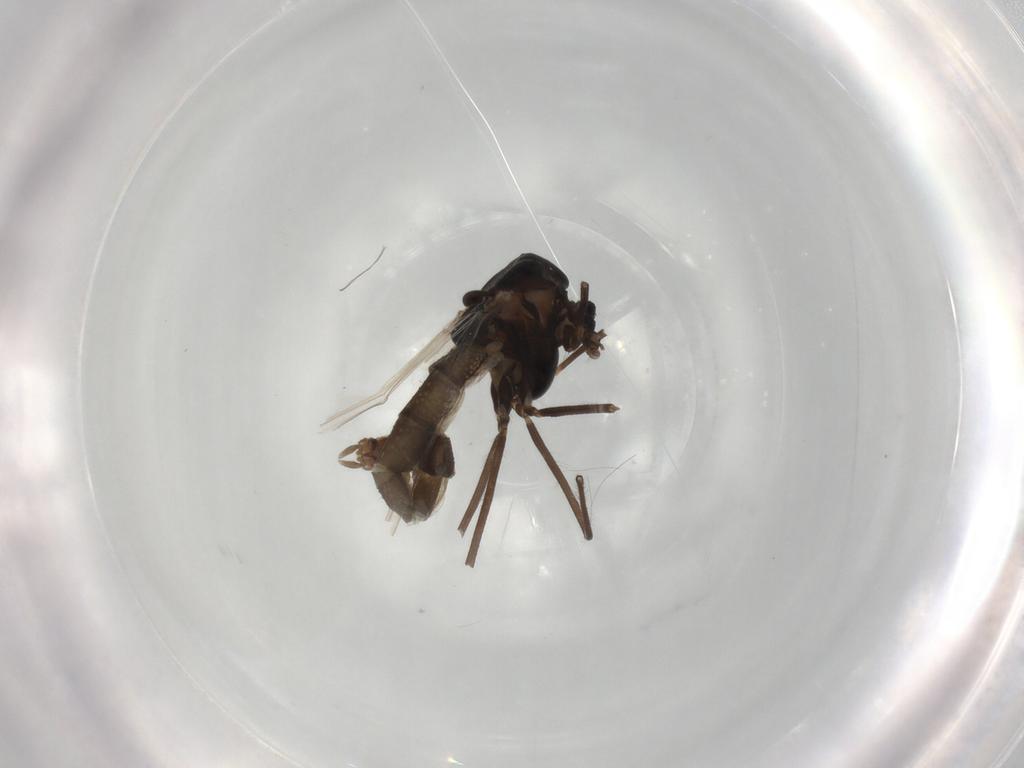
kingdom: Animalia
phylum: Arthropoda
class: Insecta
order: Diptera
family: Chironomidae
